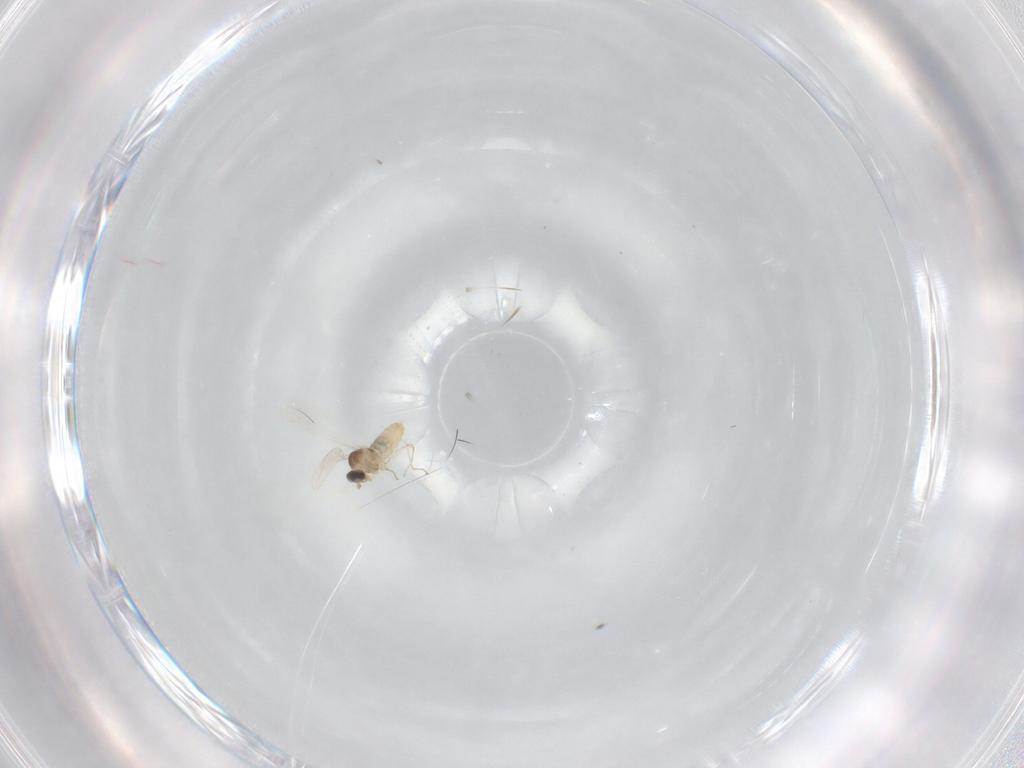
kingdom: Animalia
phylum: Arthropoda
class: Insecta
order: Diptera
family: Cecidomyiidae
